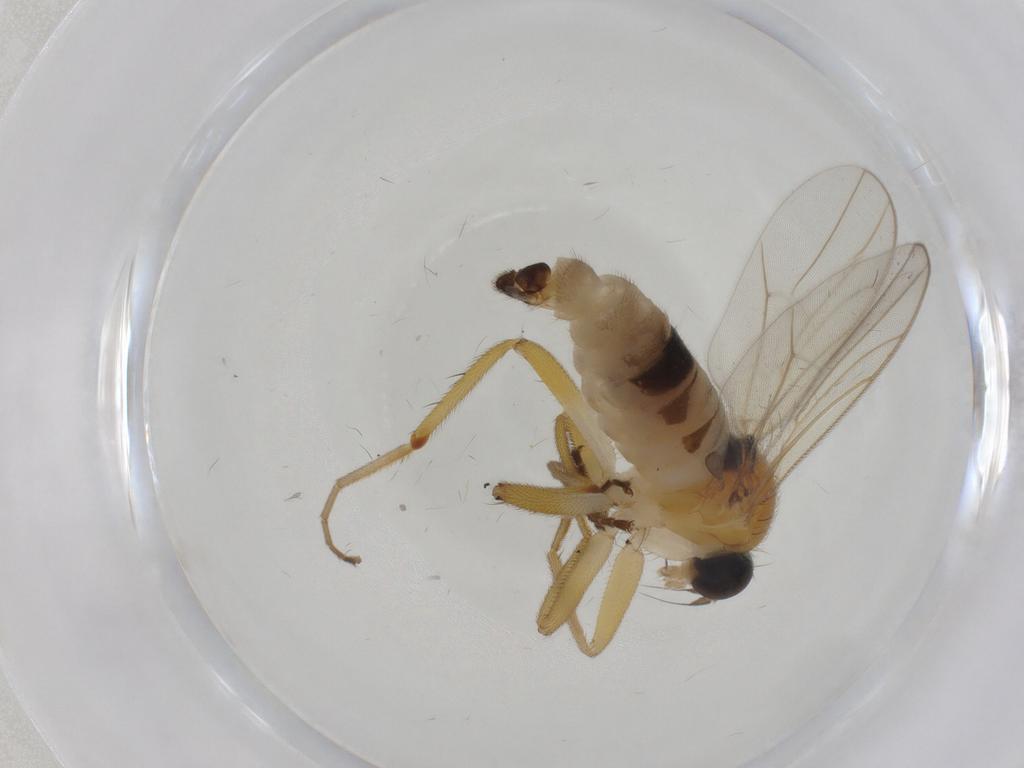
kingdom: Animalia
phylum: Arthropoda
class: Insecta
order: Diptera
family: Hybotidae
